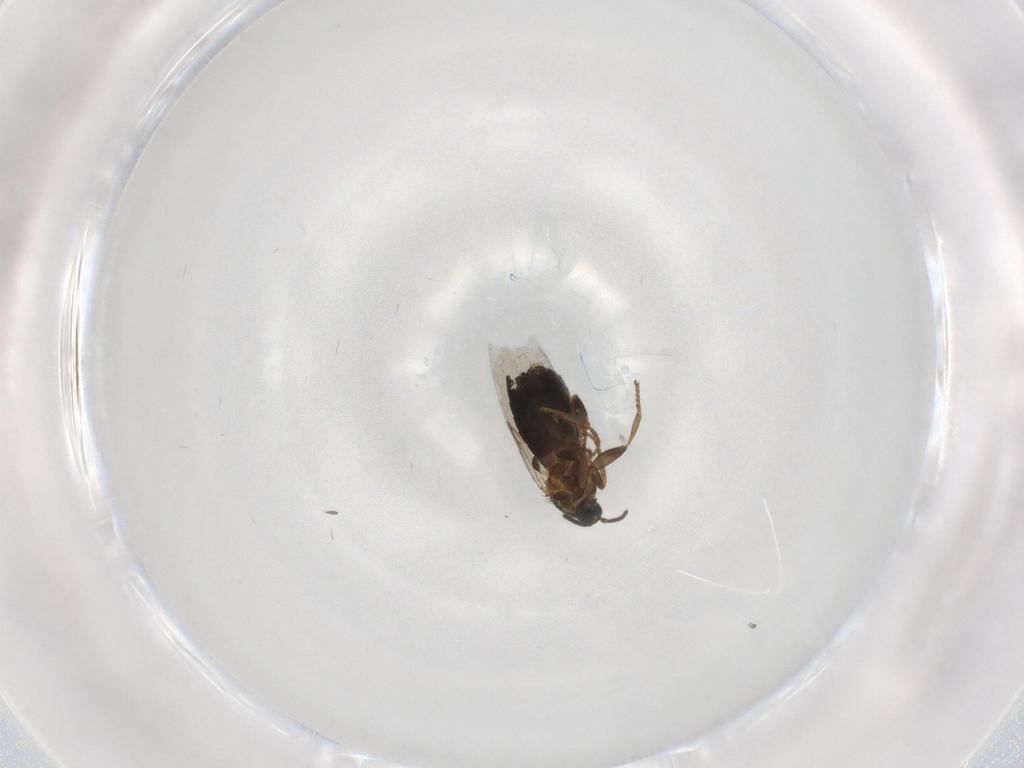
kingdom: Animalia
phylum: Arthropoda
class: Insecta
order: Diptera
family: Scatopsidae
